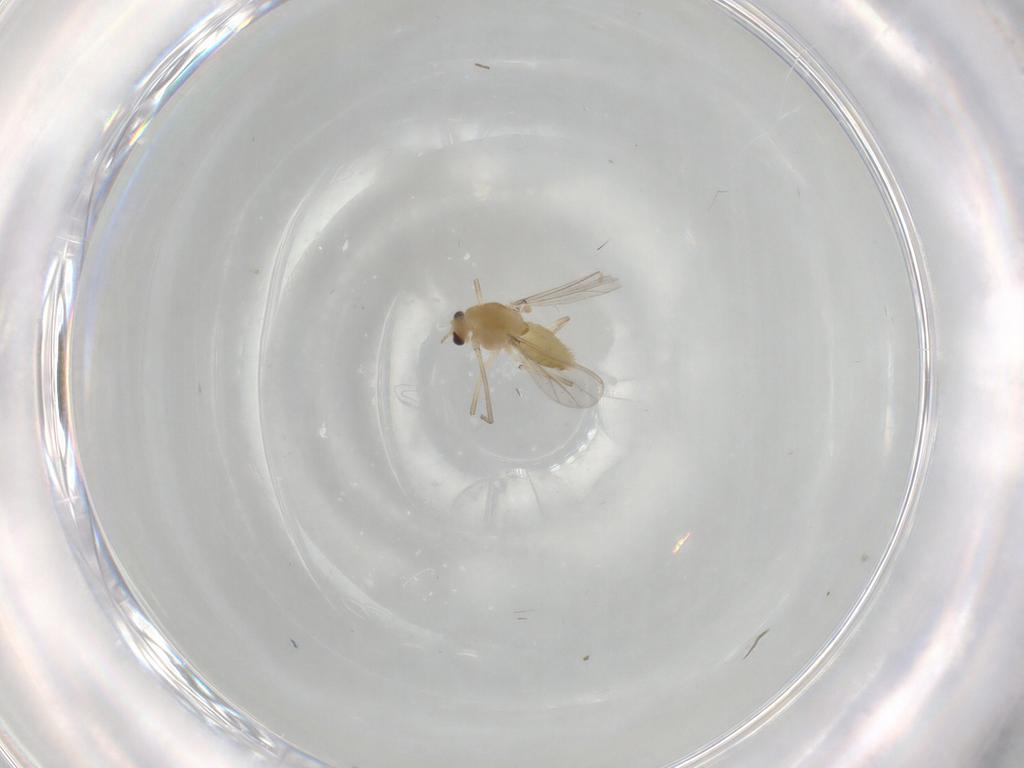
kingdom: Animalia
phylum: Arthropoda
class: Insecta
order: Diptera
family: Chironomidae
